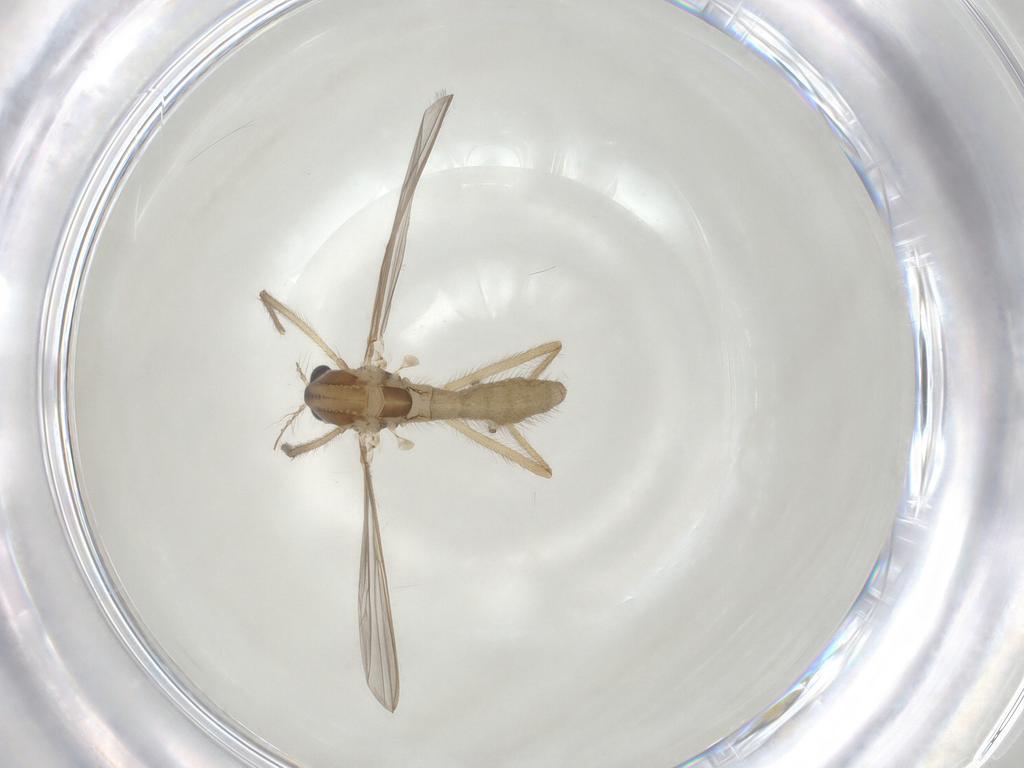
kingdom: Animalia
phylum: Arthropoda
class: Insecta
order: Diptera
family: Chironomidae
